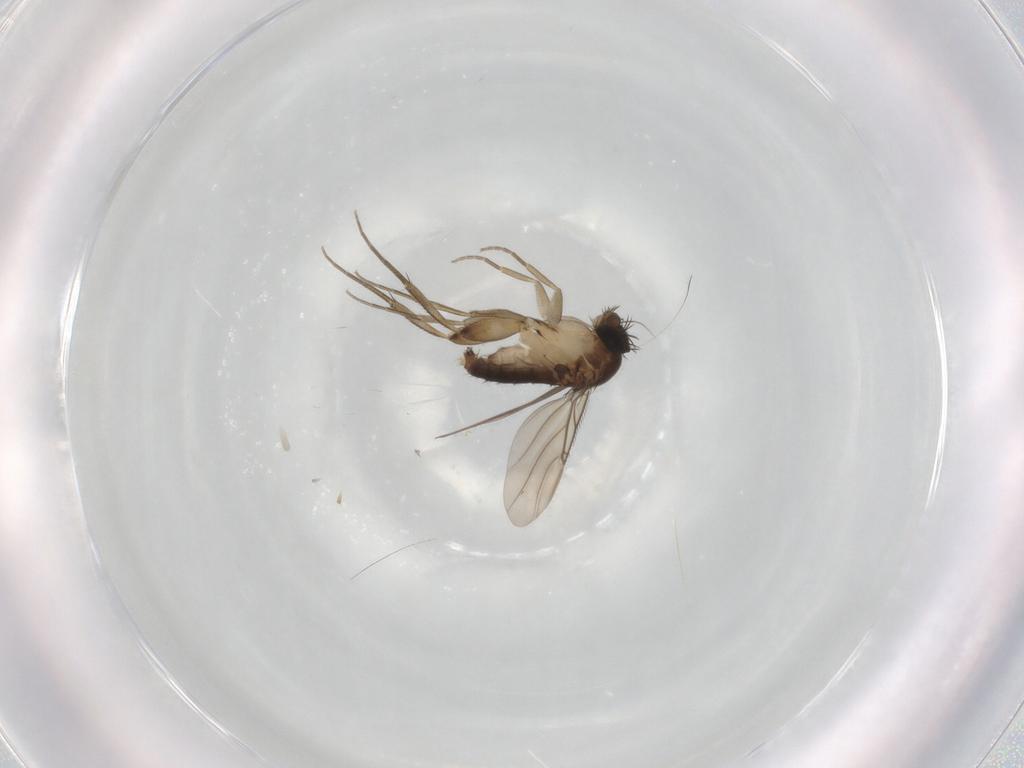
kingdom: Animalia
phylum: Arthropoda
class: Insecta
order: Diptera
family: Phoridae
